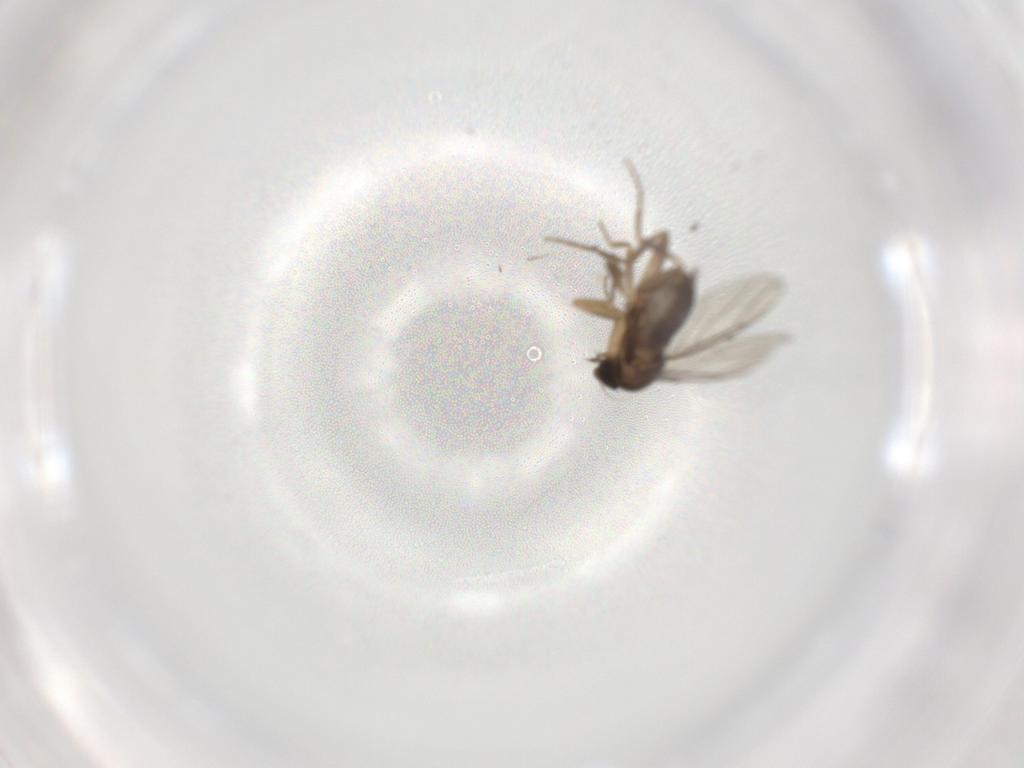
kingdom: Animalia
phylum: Arthropoda
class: Insecta
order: Diptera
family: Phoridae
